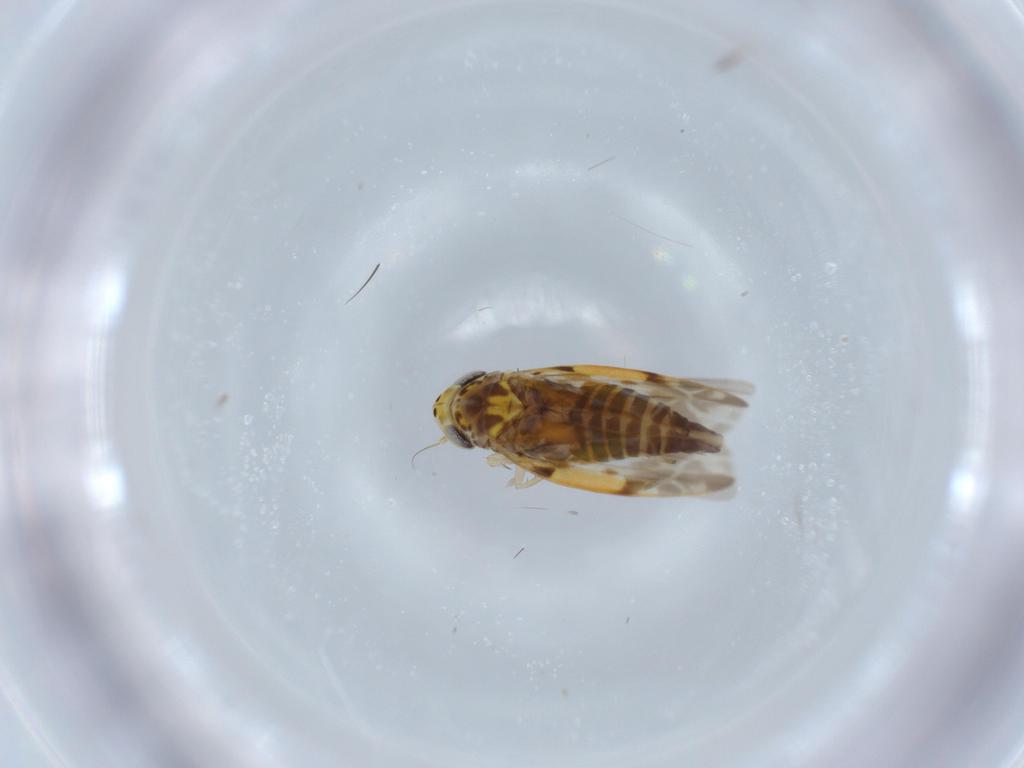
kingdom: Animalia
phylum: Arthropoda
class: Insecta
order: Hemiptera
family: Cicadellidae
